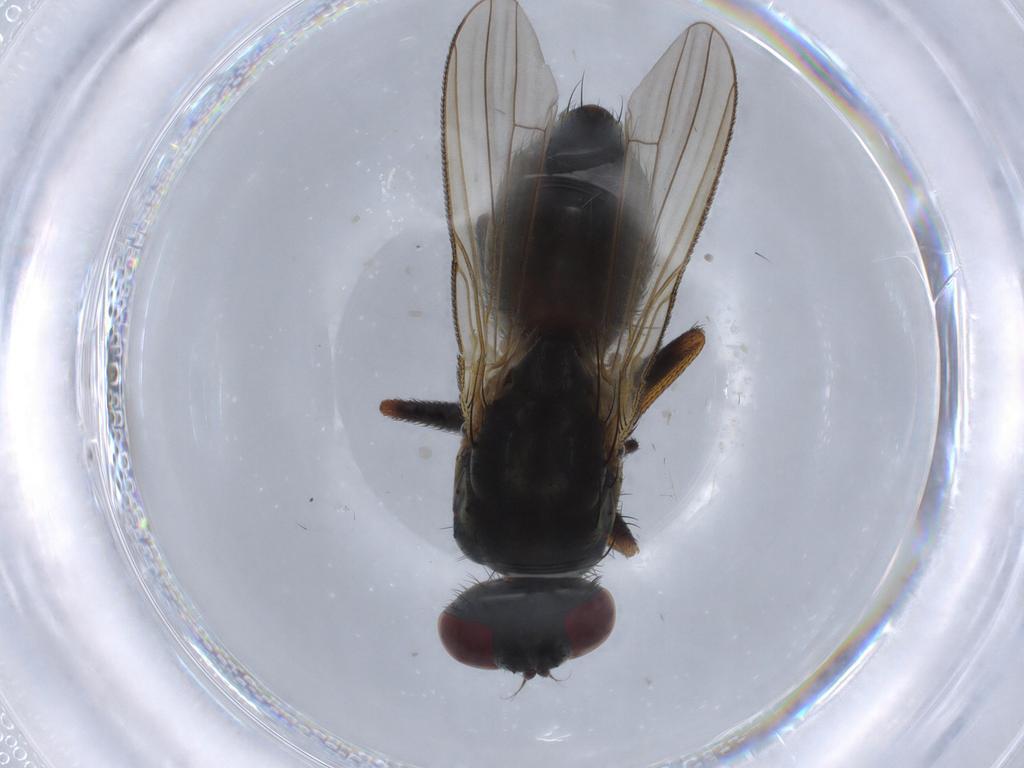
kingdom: Animalia
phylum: Arthropoda
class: Insecta
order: Diptera
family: Muscidae
